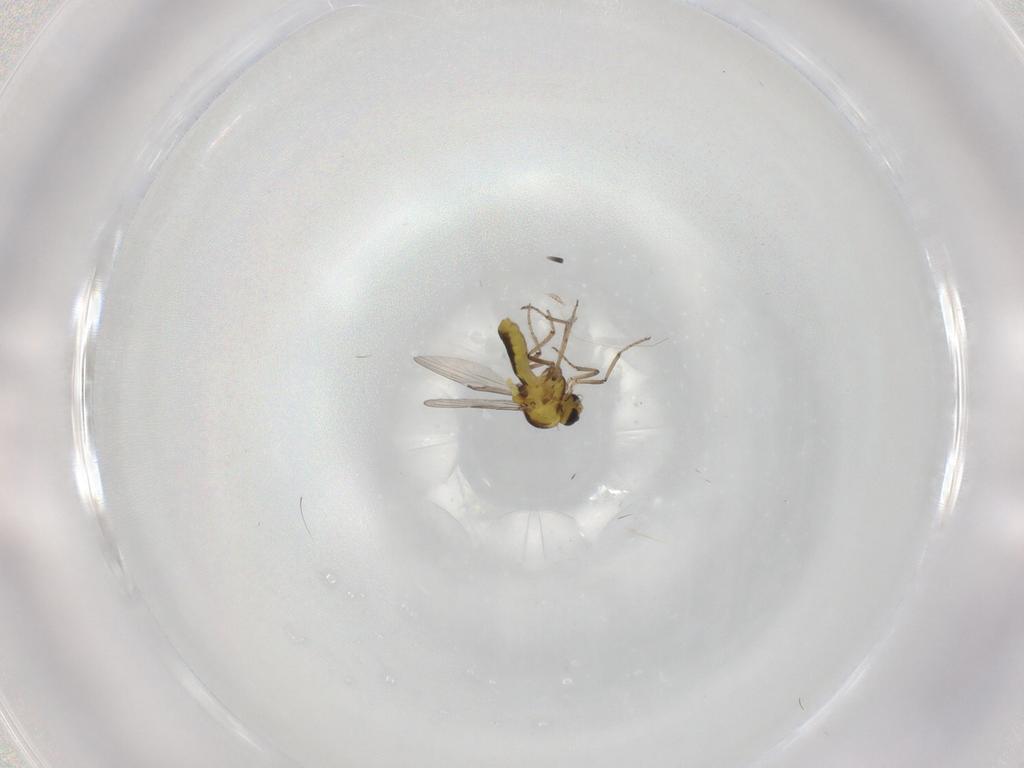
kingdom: Animalia
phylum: Arthropoda
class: Insecta
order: Diptera
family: Ceratopogonidae
